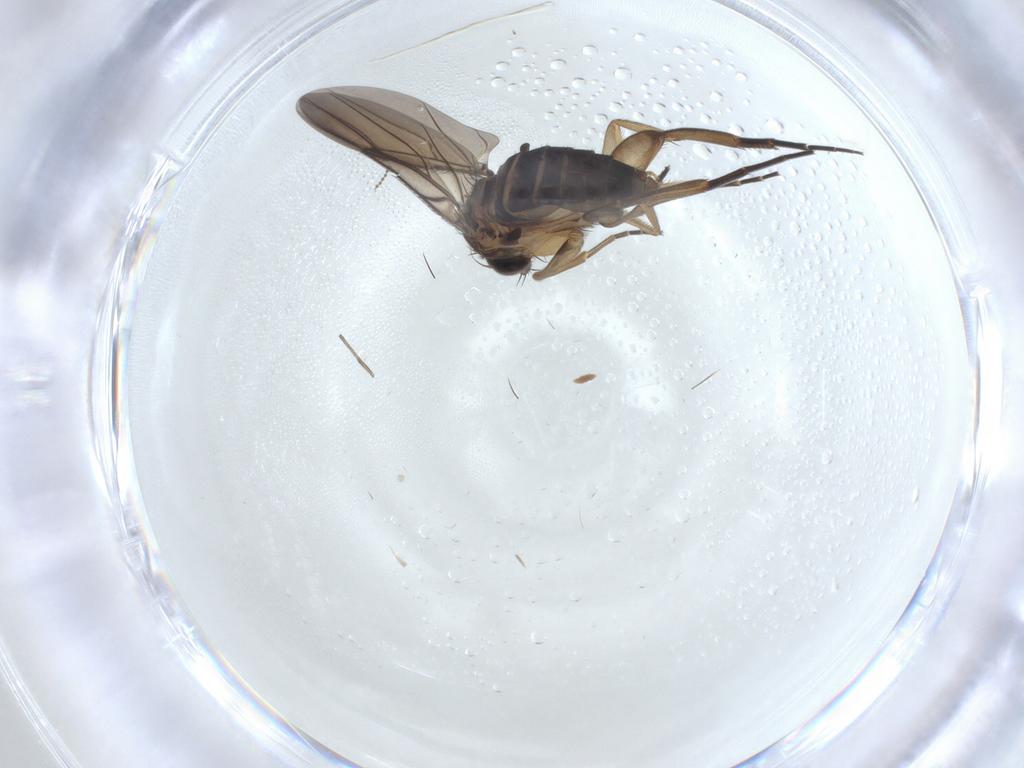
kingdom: Animalia
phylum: Arthropoda
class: Insecta
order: Diptera
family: Phoridae
